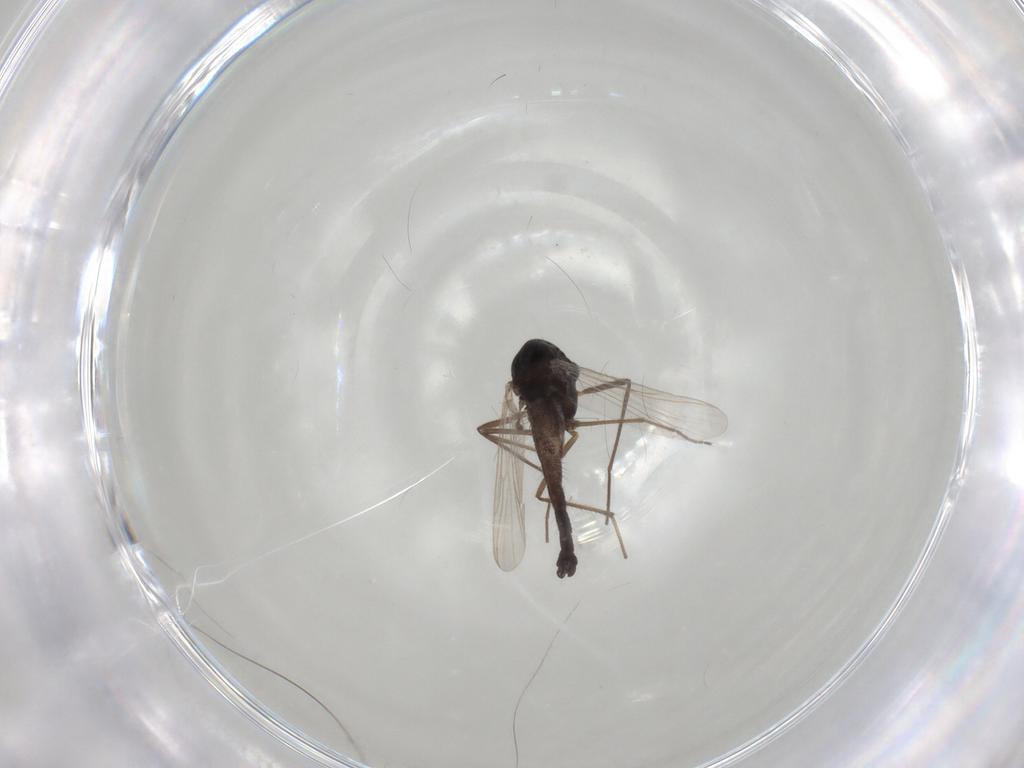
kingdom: Animalia
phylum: Arthropoda
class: Insecta
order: Diptera
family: Chironomidae
